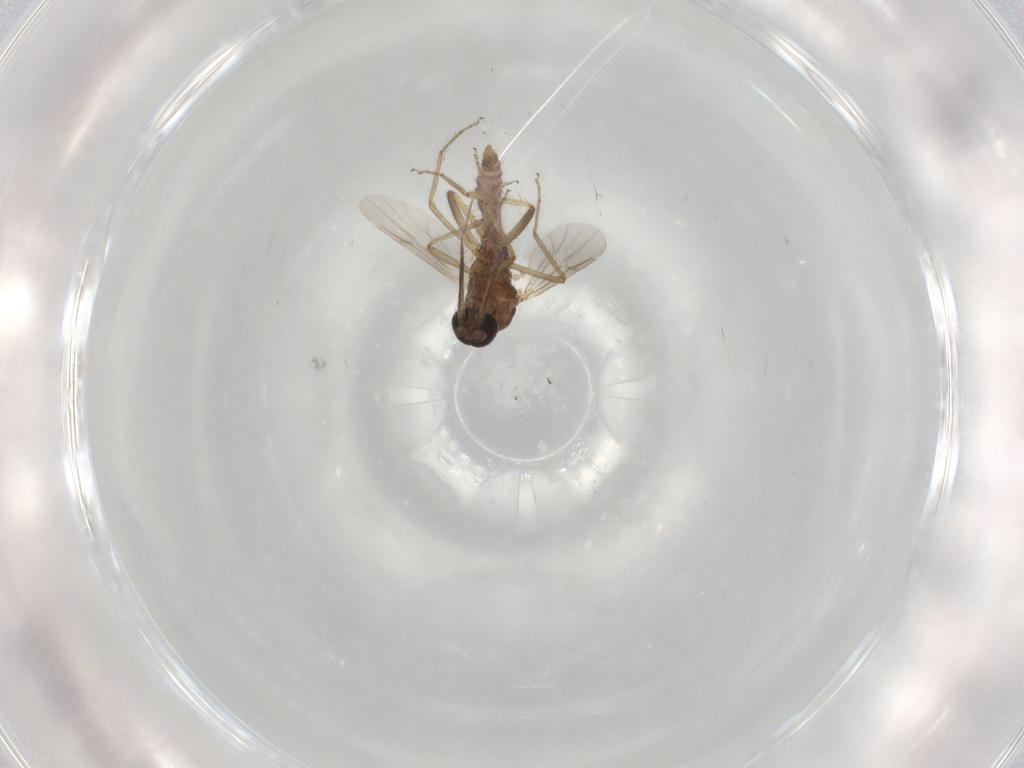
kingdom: Animalia
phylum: Arthropoda
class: Insecta
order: Diptera
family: Ceratopogonidae
